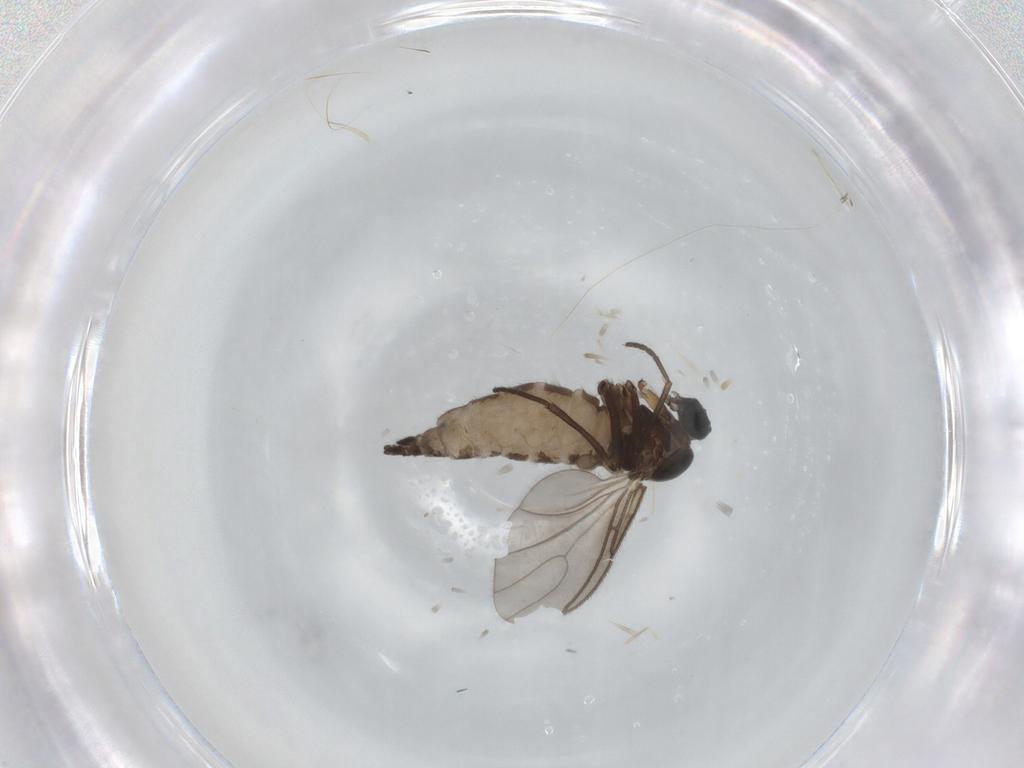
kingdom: Animalia
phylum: Arthropoda
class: Insecta
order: Diptera
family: Sciaridae
